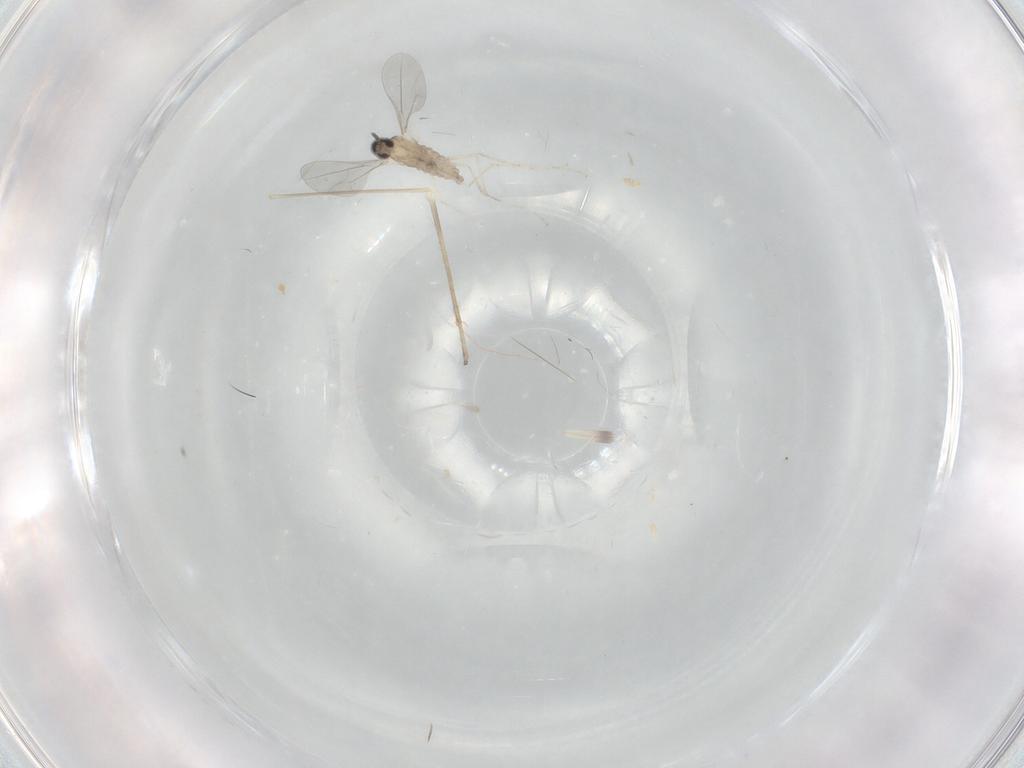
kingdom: Animalia
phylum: Arthropoda
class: Insecta
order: Diptera
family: Cecidomyiidae
